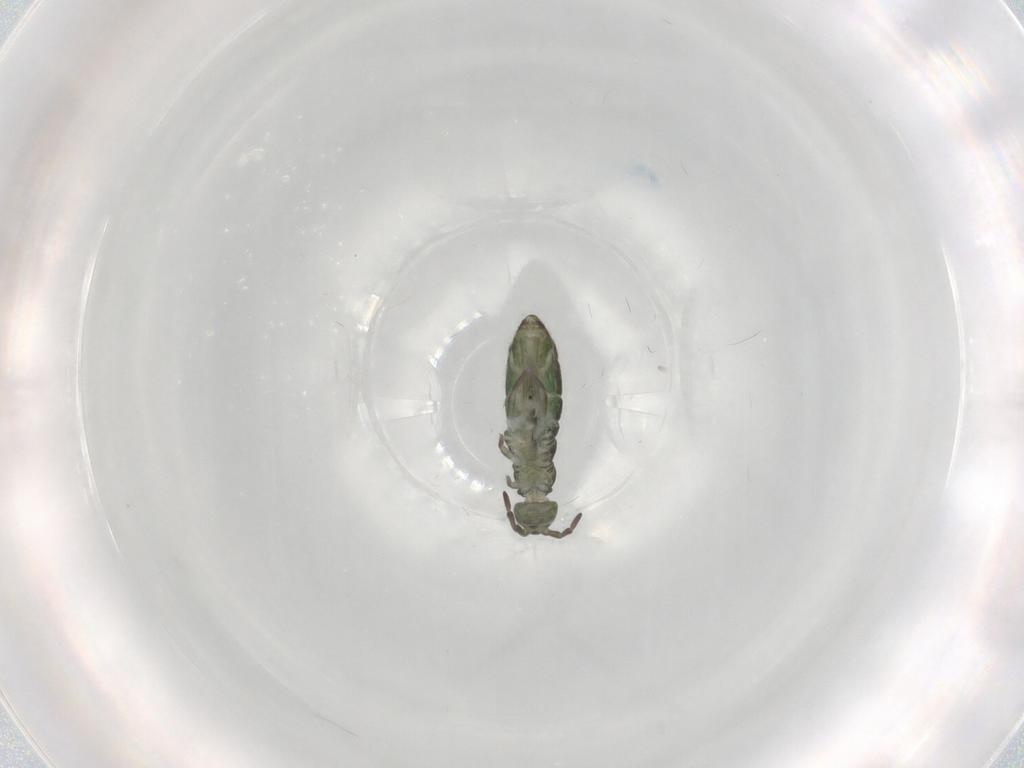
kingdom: Animalia
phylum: Arthropoda
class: Collembola
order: Entomobryomorpha
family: Isotomidae
